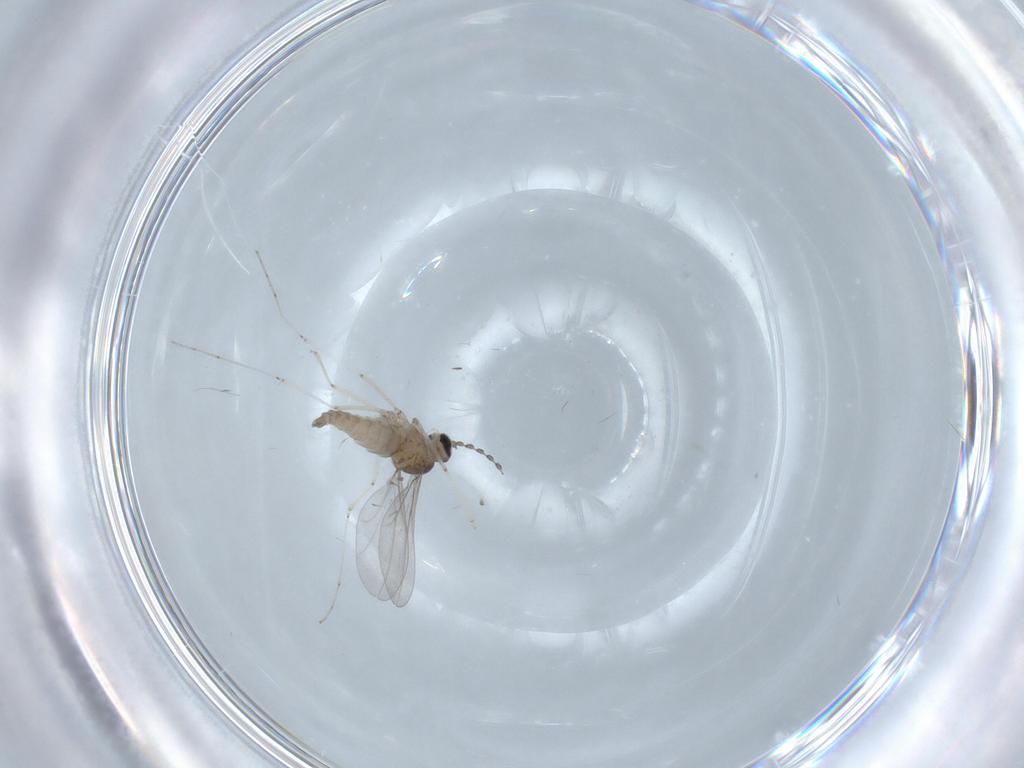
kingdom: Animalia
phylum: Arthropoda
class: Insecta
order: Diptera
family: Cecidomyiidae
